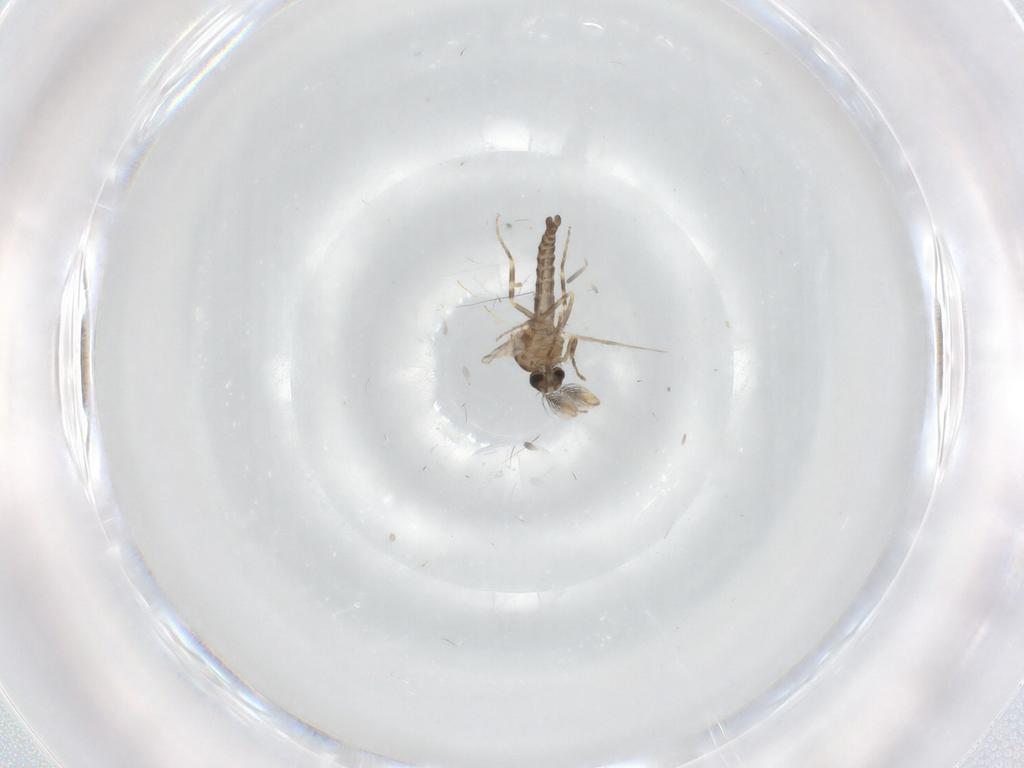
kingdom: Animalia
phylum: Arthropoda
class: Insecta
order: Diptera
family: Ceratopogonidae
